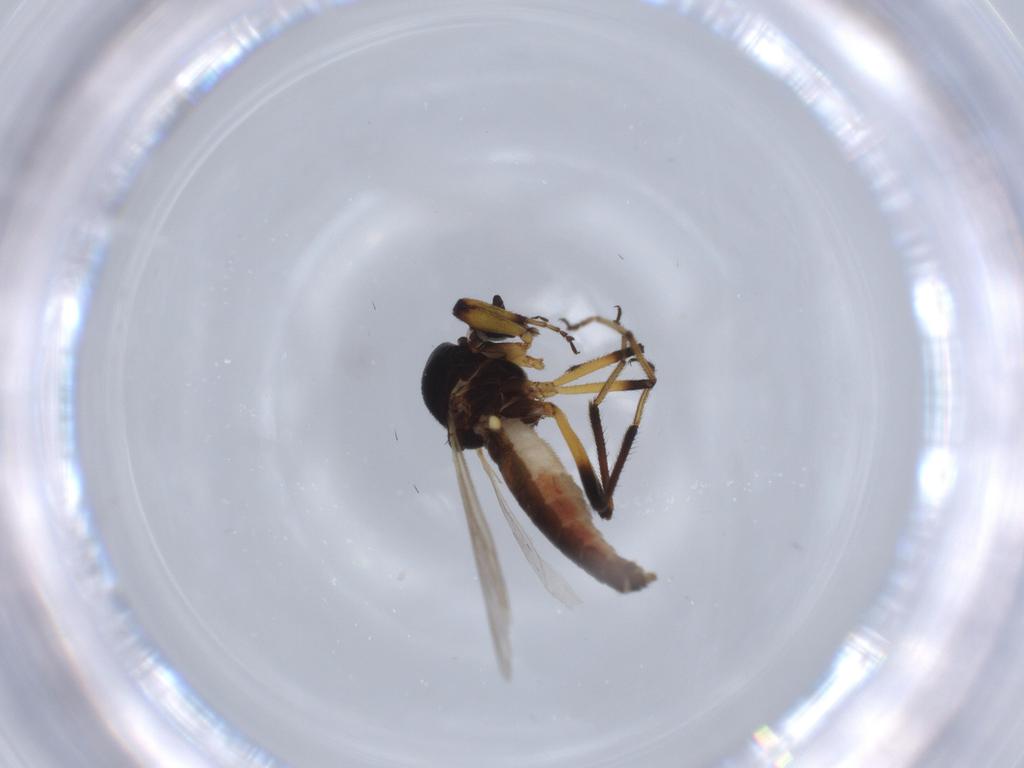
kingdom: Animalia
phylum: Arthropoda
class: Insecta
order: Diptera
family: Ceratopogonidae
